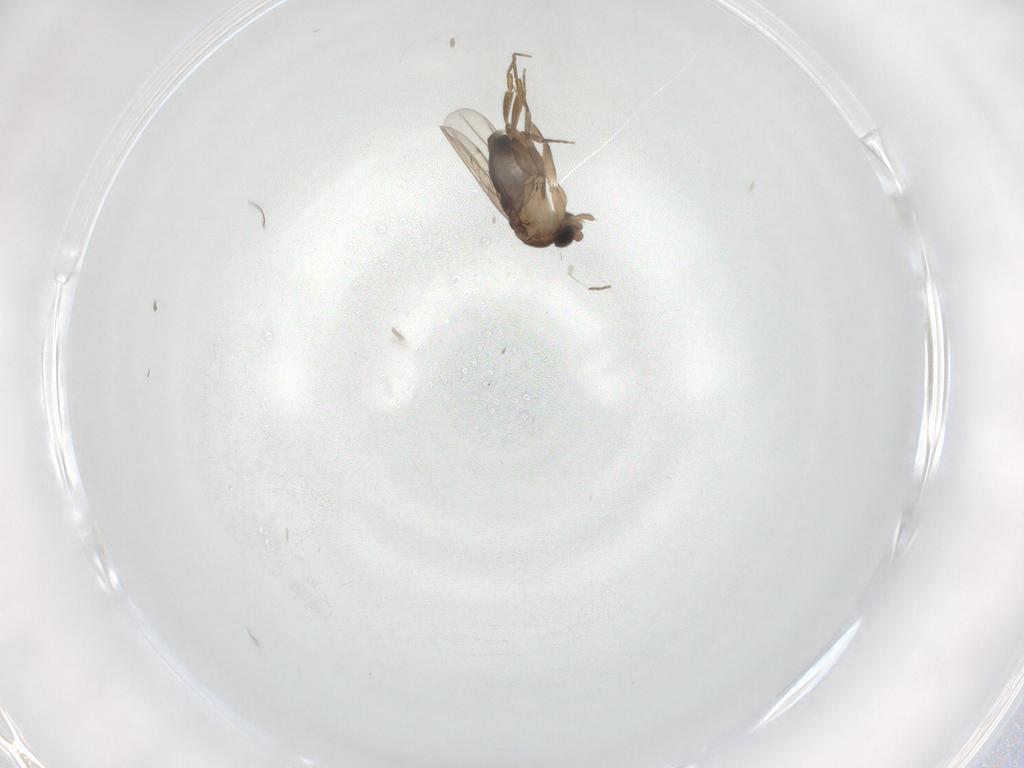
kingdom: Animalia
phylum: Arthropoda
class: Insecta
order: Diptera
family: Phoridae
